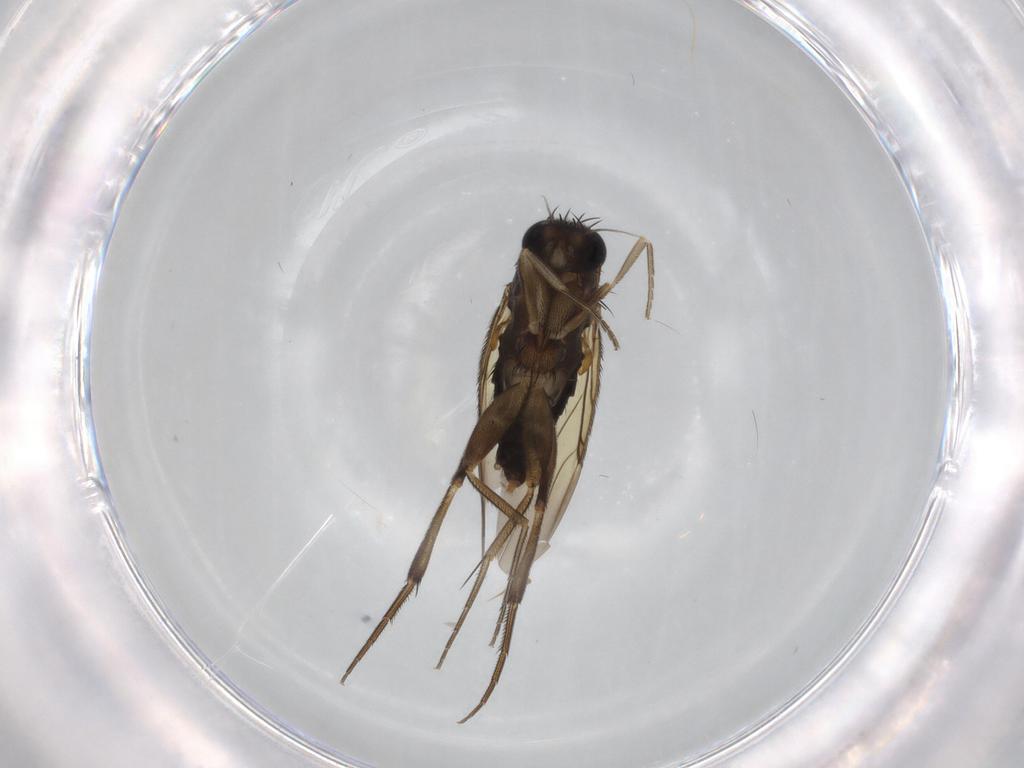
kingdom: Animalia
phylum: Arthropoda
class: Insecta
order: Diptera
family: Phoridae
